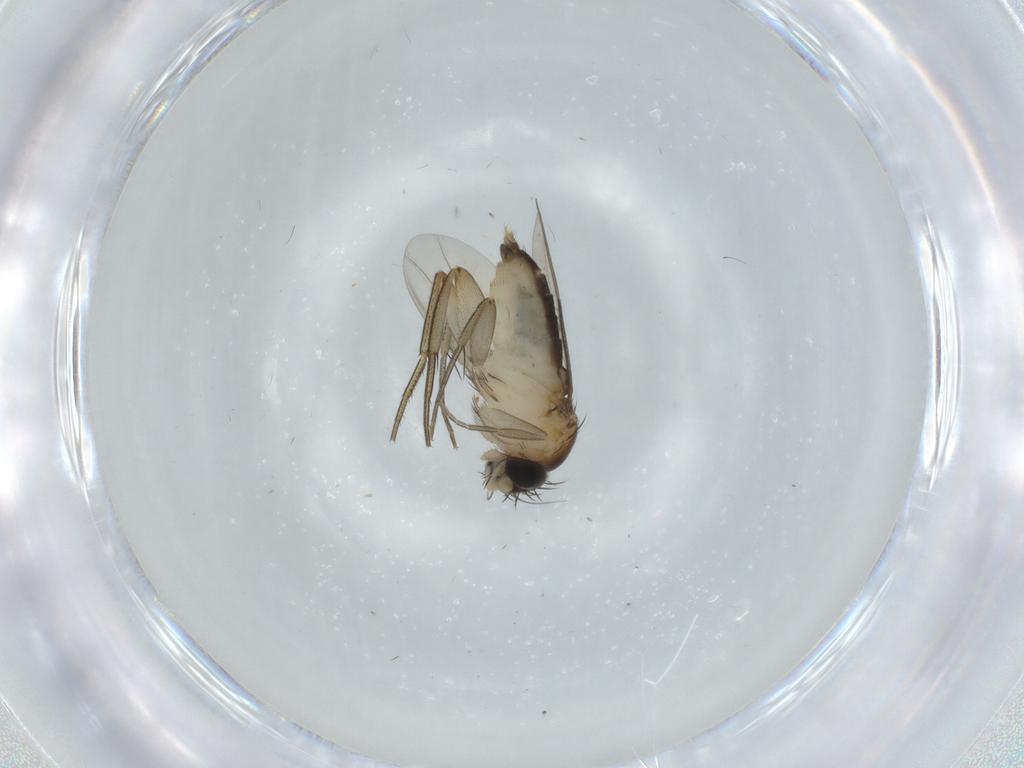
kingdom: Animalia
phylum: Arthropoda
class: Insecta
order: Diptera
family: Phoridae
